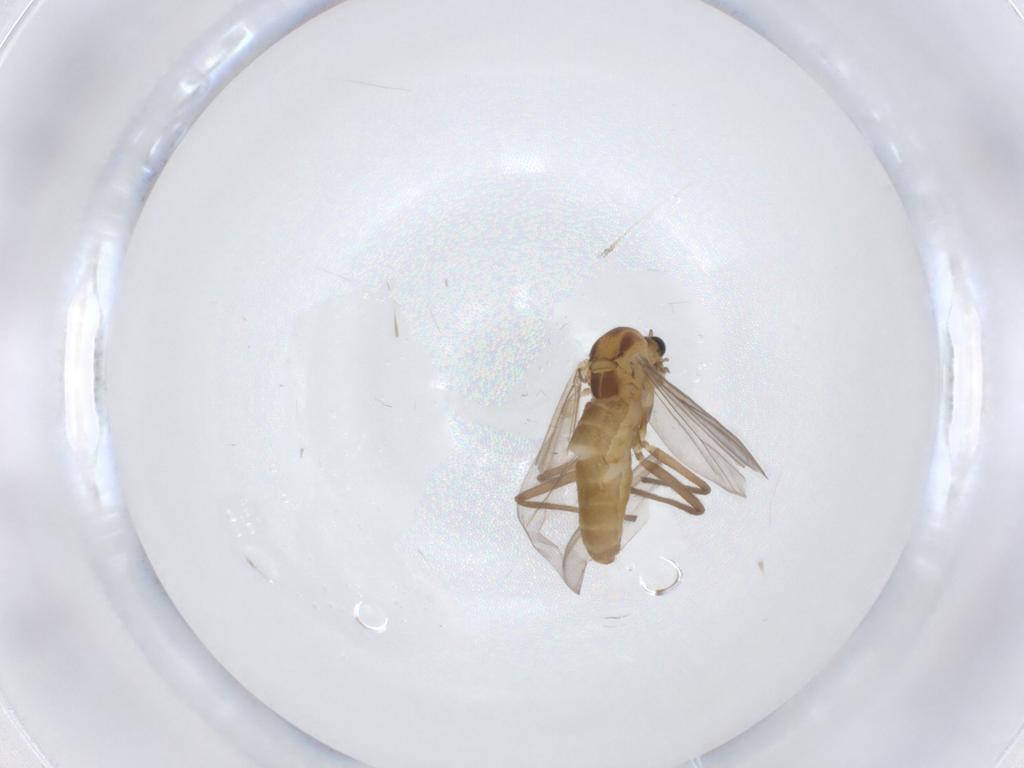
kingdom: Animalia
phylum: Arthropoda
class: Insecta
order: Diptera
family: Chironomidae
